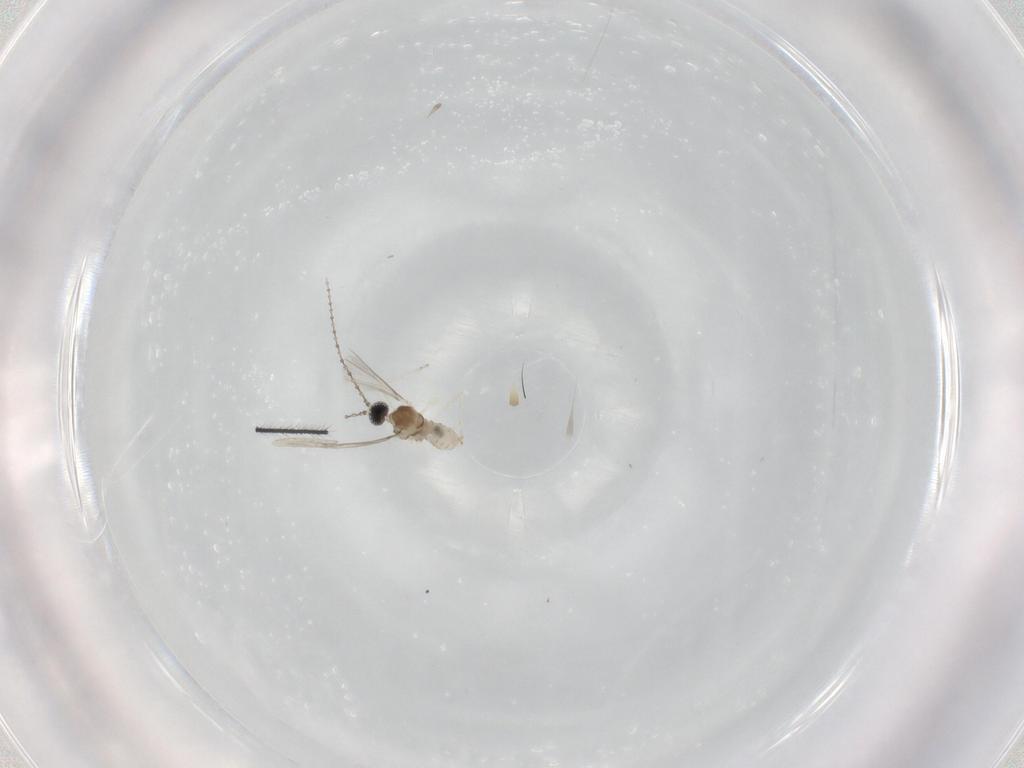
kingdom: Animalia
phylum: Arthropoda
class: Insecta
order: Diptera
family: Cecidomyiidae
